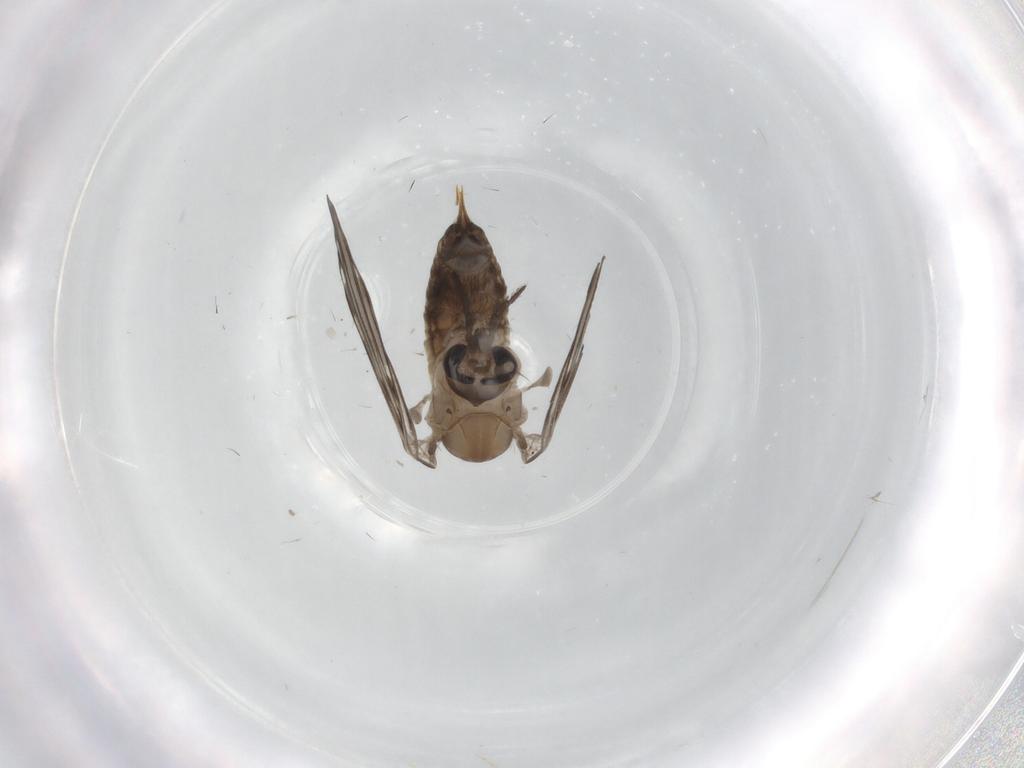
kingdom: Animalia
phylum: Arthropoda
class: Insecta
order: Diptera
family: Psychodidae
